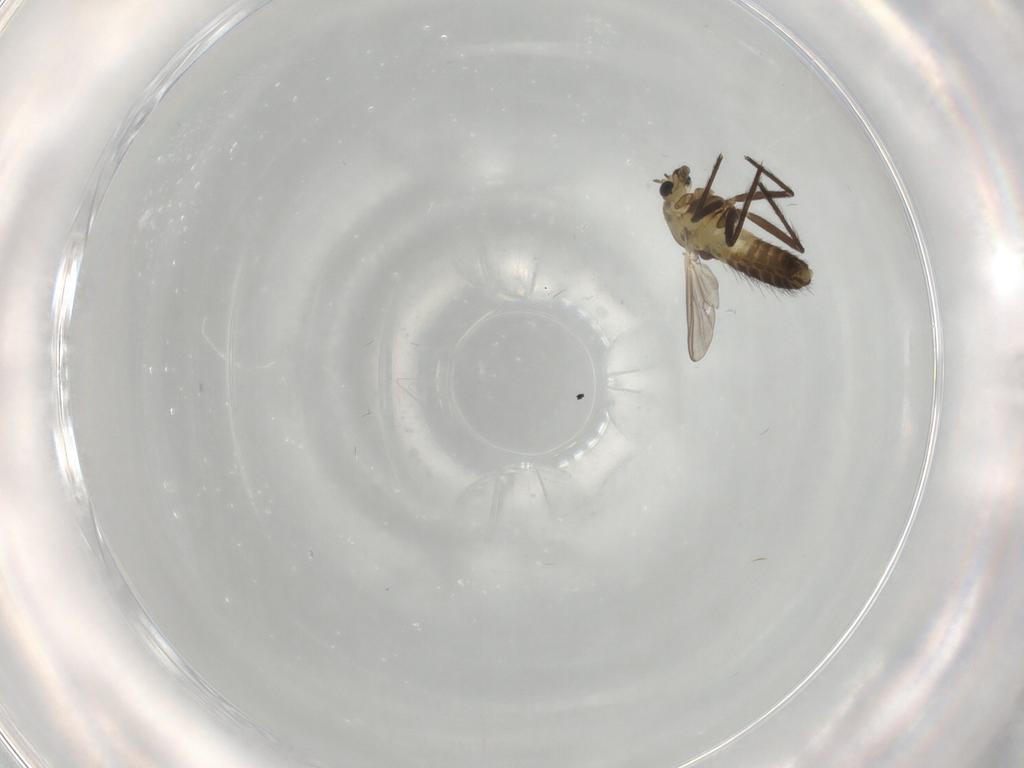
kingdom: Animalia
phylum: Arthropoda
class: Insecta
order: Diptera
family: Chironomidae
